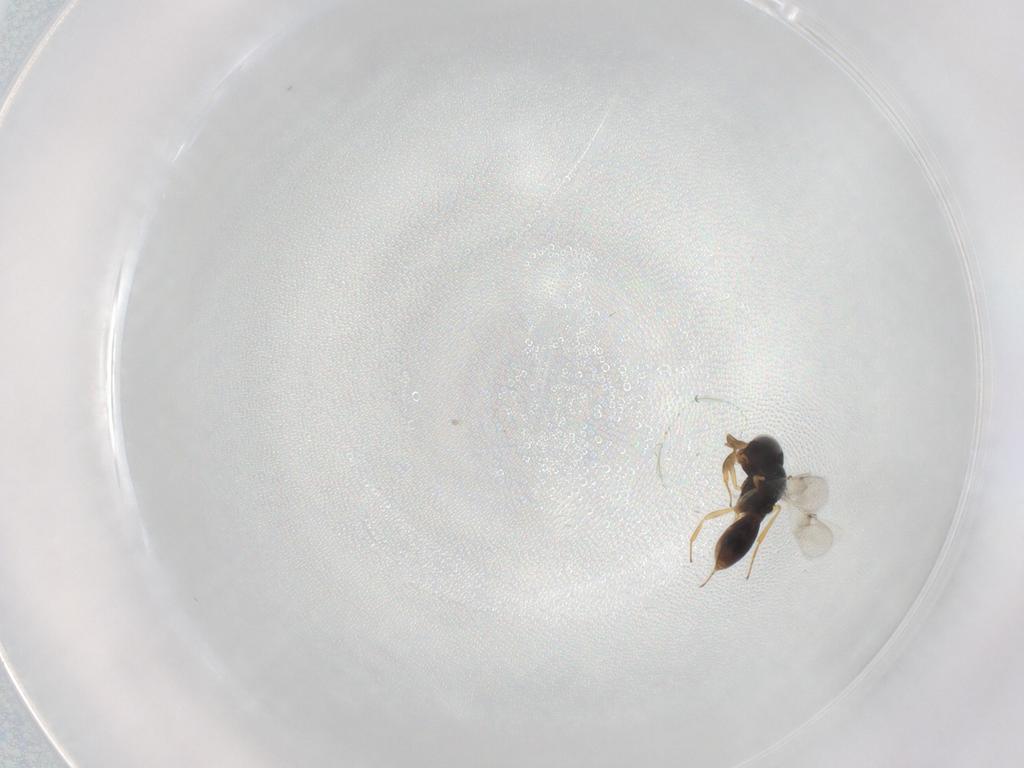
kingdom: Animalia
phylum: Arthropoda
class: Insecta
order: Hymenoptera
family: Scelionidae
